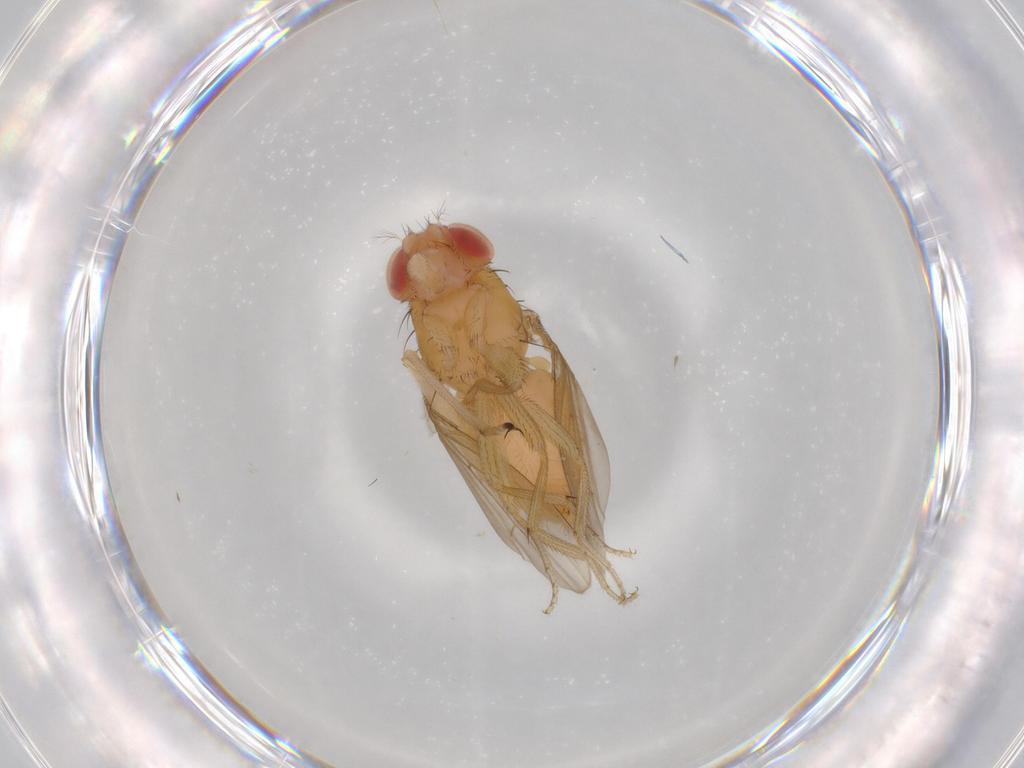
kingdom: Animalia
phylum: Arthropoda
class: Insecta
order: Diptera
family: Drosophilidae
